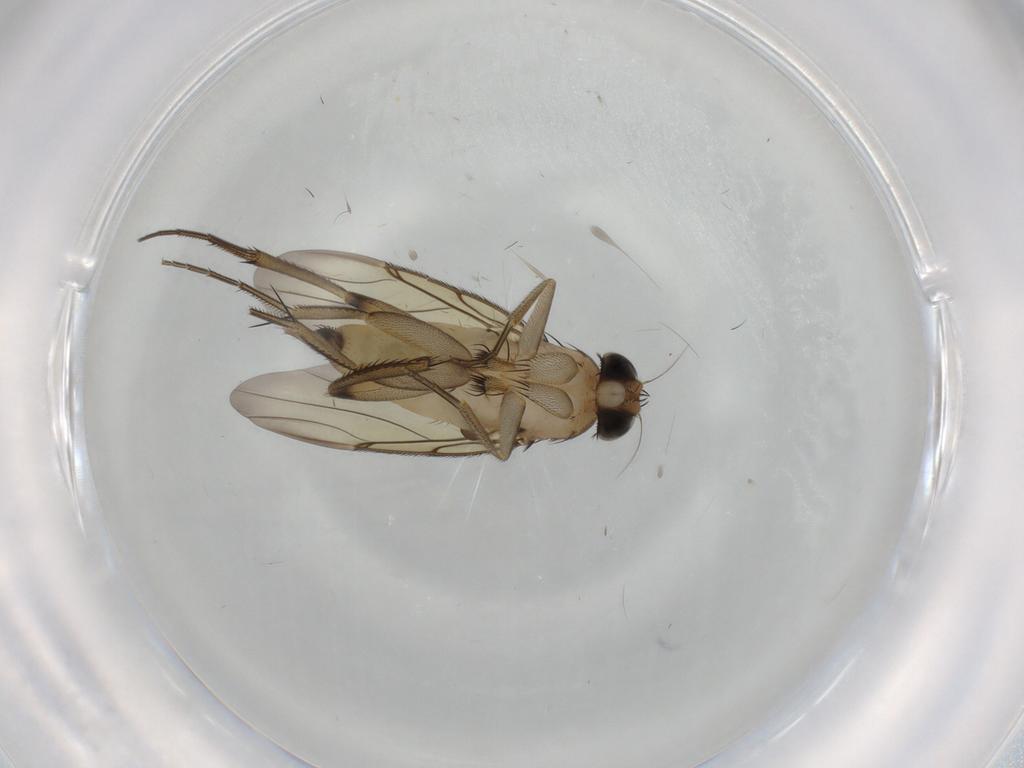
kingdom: Animalia
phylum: Arthropoda
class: Insecta
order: Diptera
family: Phoridae
